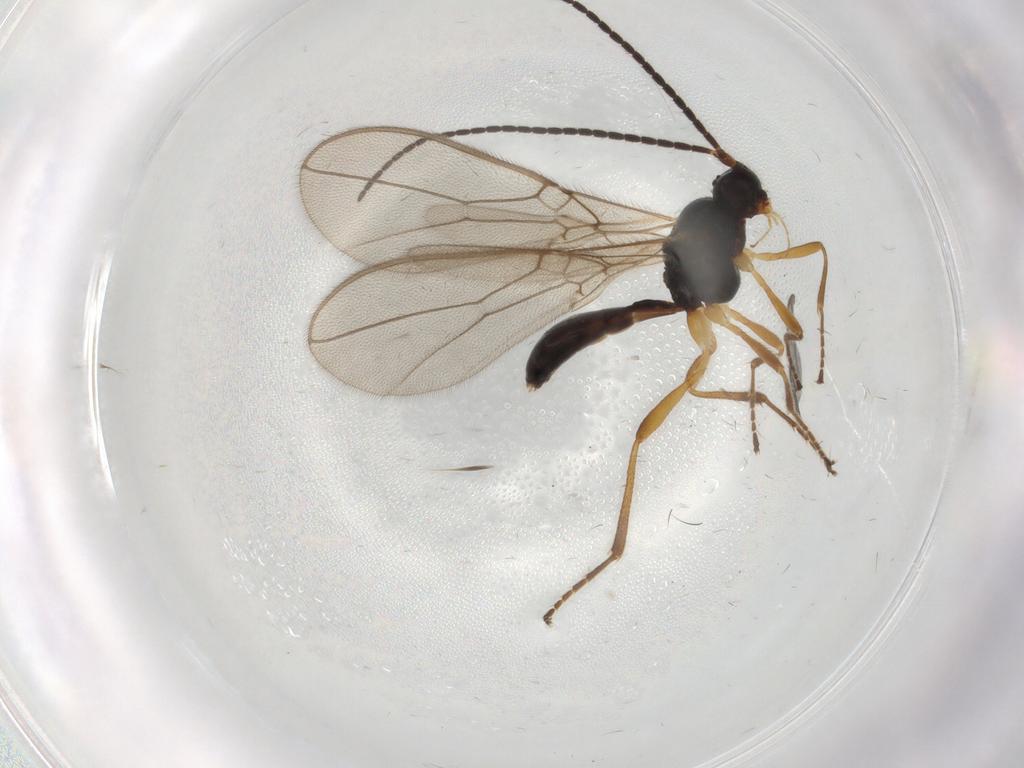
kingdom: Animalia
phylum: Arthropoda
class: Insecta
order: Hymenoptera
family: Braconidae
